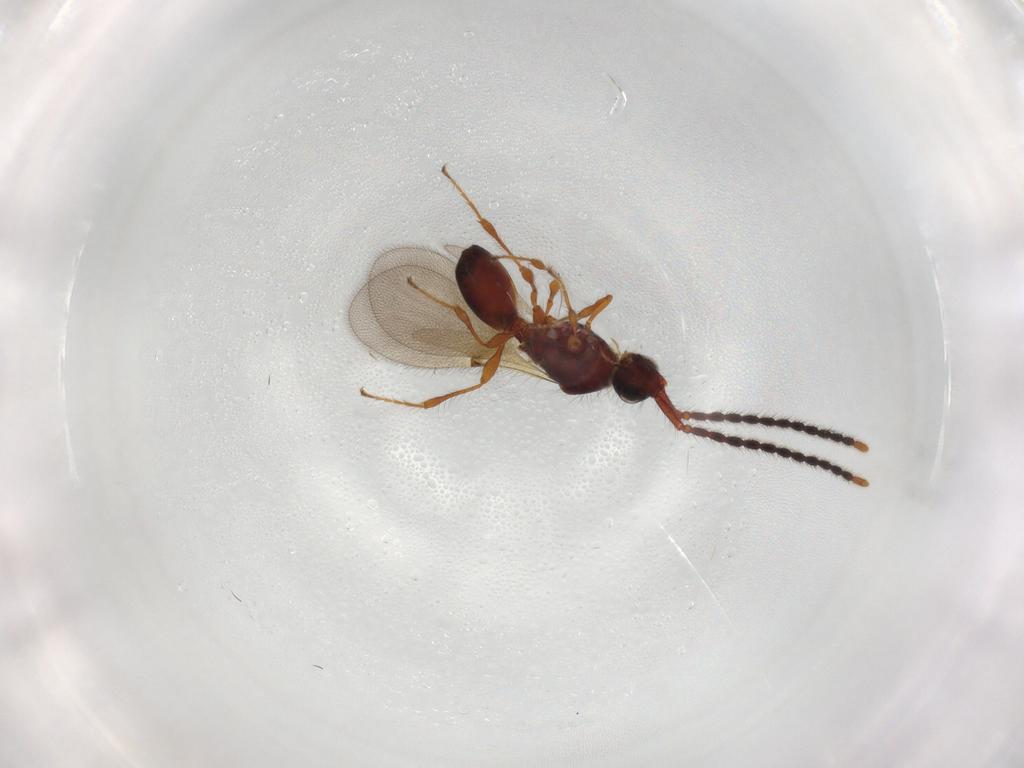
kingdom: Animalia
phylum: Arthropoda
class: Insecta
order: Hymenoptera
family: Diapriidae
